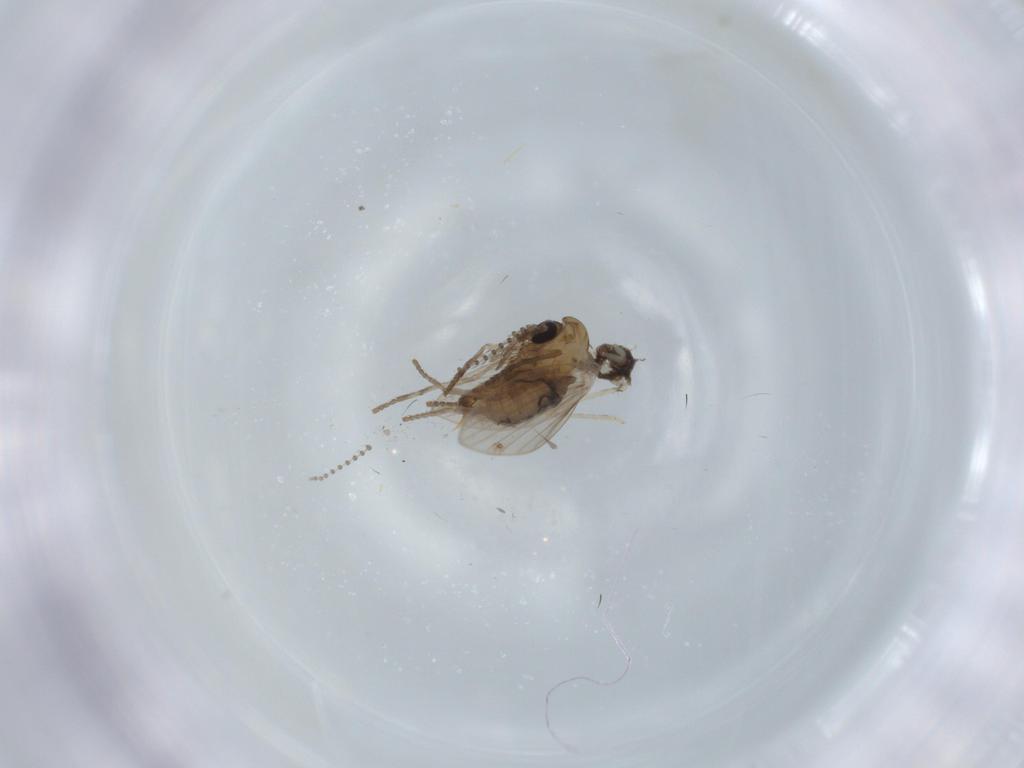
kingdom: Animalia
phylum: Arthropoda
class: Insecta
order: Diptera
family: Psychodidae
